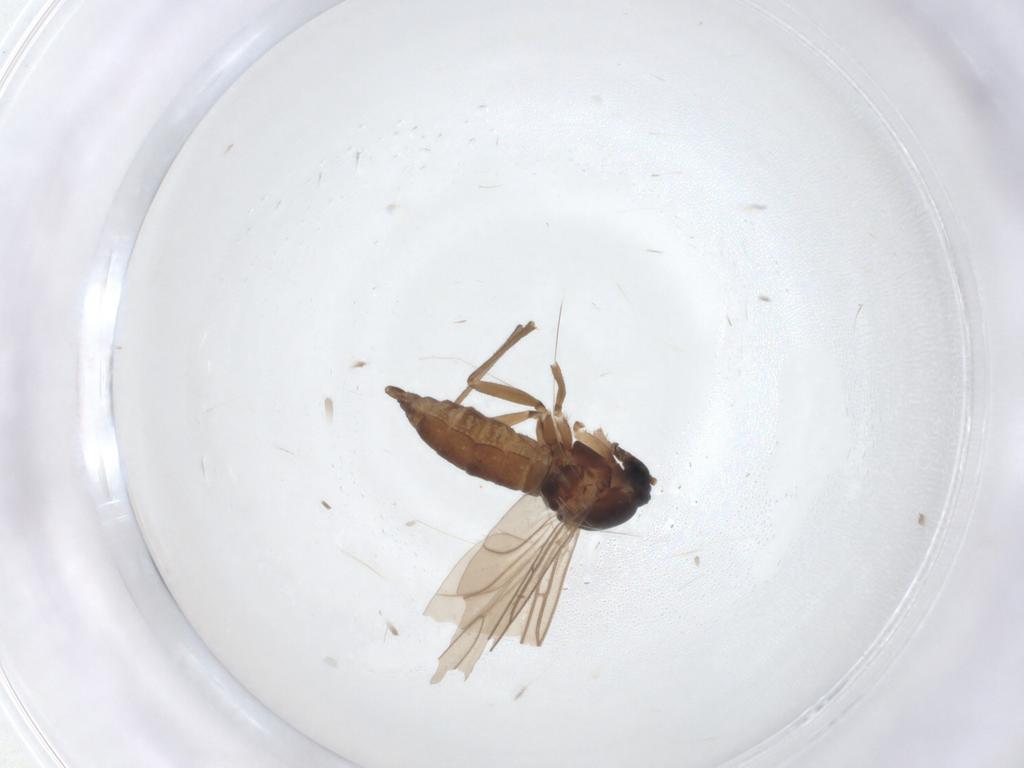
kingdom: Animalia
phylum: Arthropoda
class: Insecta
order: Diptera
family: Sciaridae
